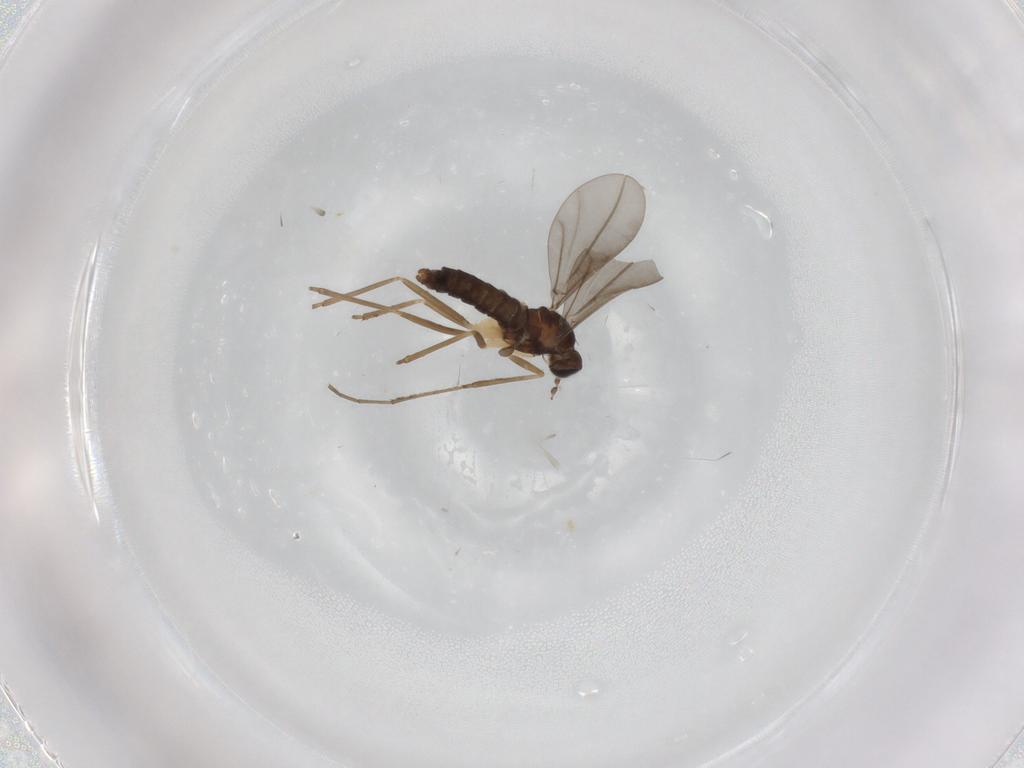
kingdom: Animalia
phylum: Arthropoda
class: Insecta
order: Diptera
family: Cecidomyiidae
